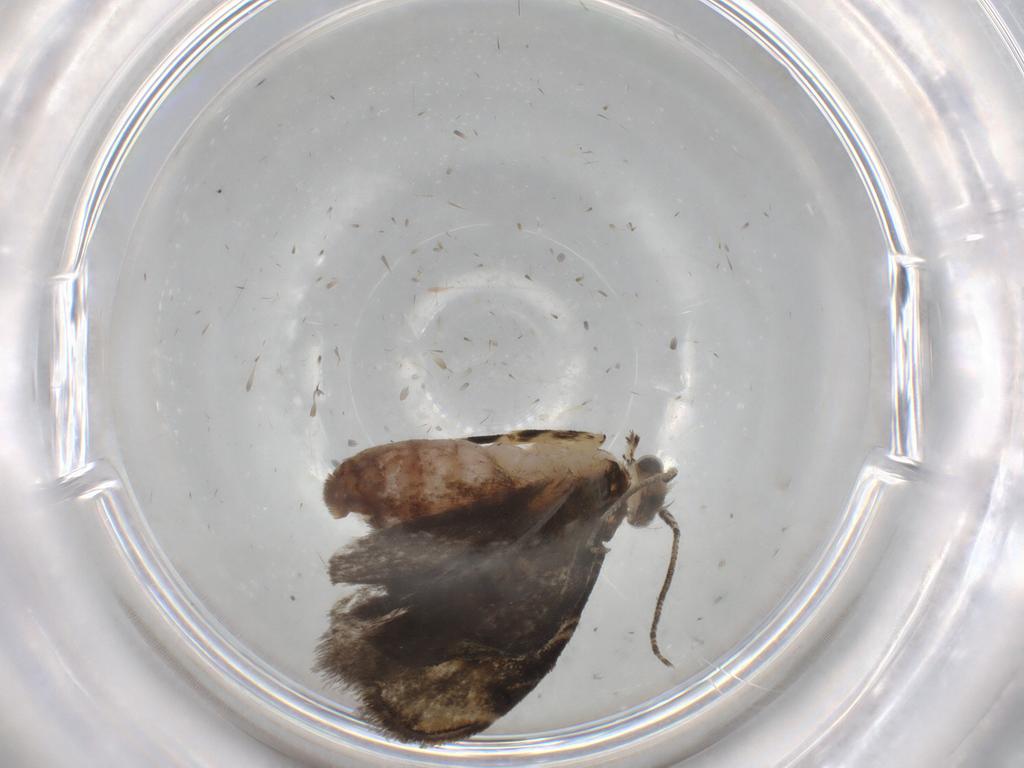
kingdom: Animalia
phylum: Arthropoda
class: Insecta
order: Lepidoptera
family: Tineidae
